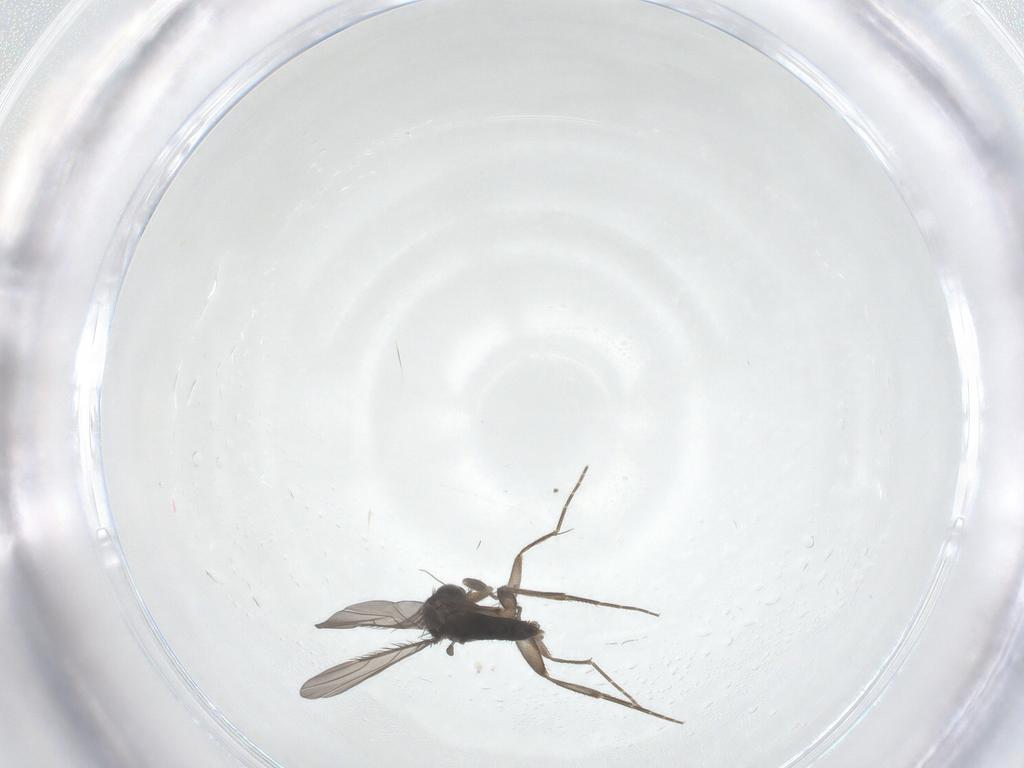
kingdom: Animalia
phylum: Arthropoda
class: Insecta
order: Diptera
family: Phoridae
